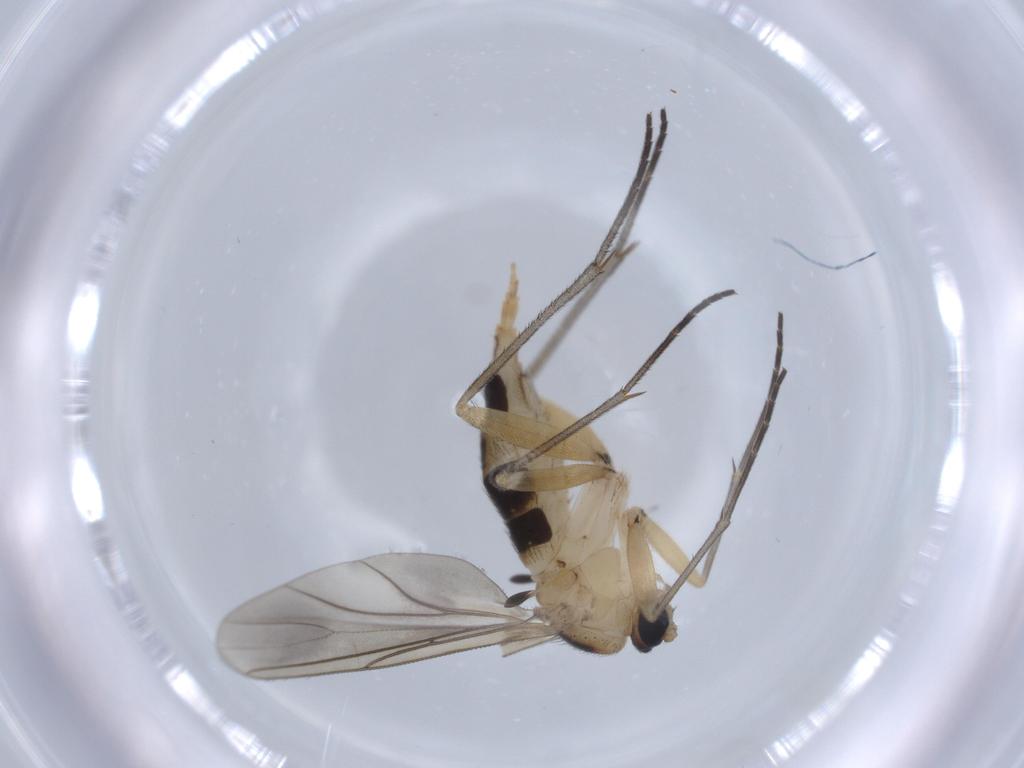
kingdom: Animalia
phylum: Arthropoda
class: Insecta
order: Diptera
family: Sciaridae
